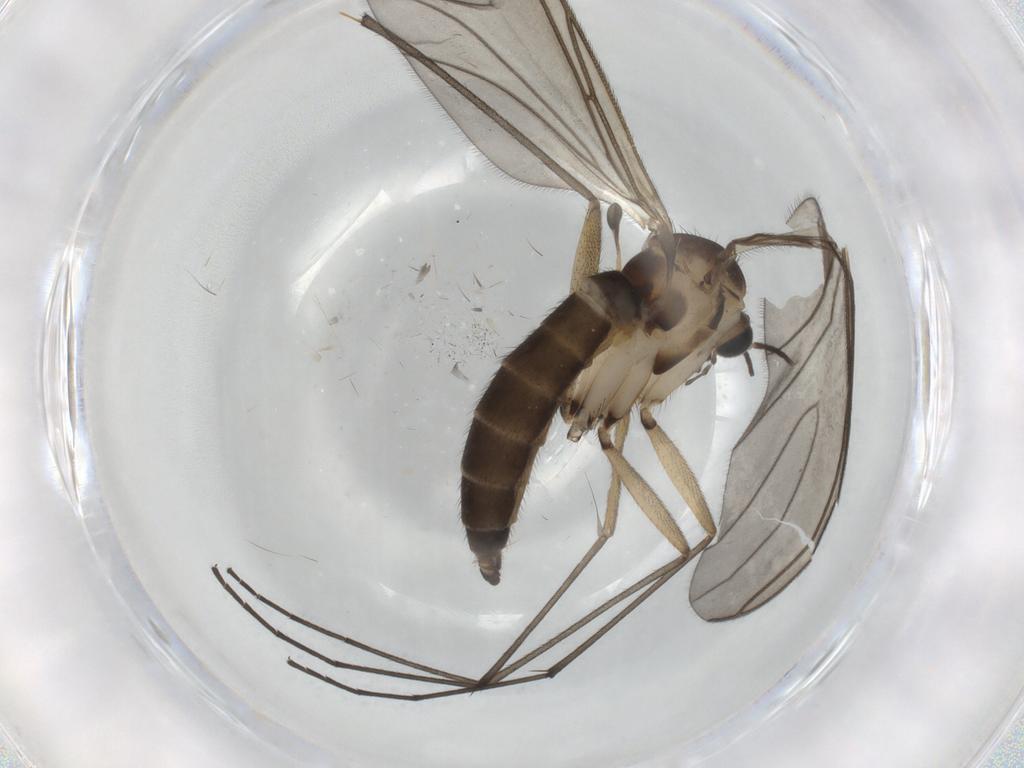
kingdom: Animalia
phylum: Arthropoda
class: Insecta
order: Diptera
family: Sciaridae
